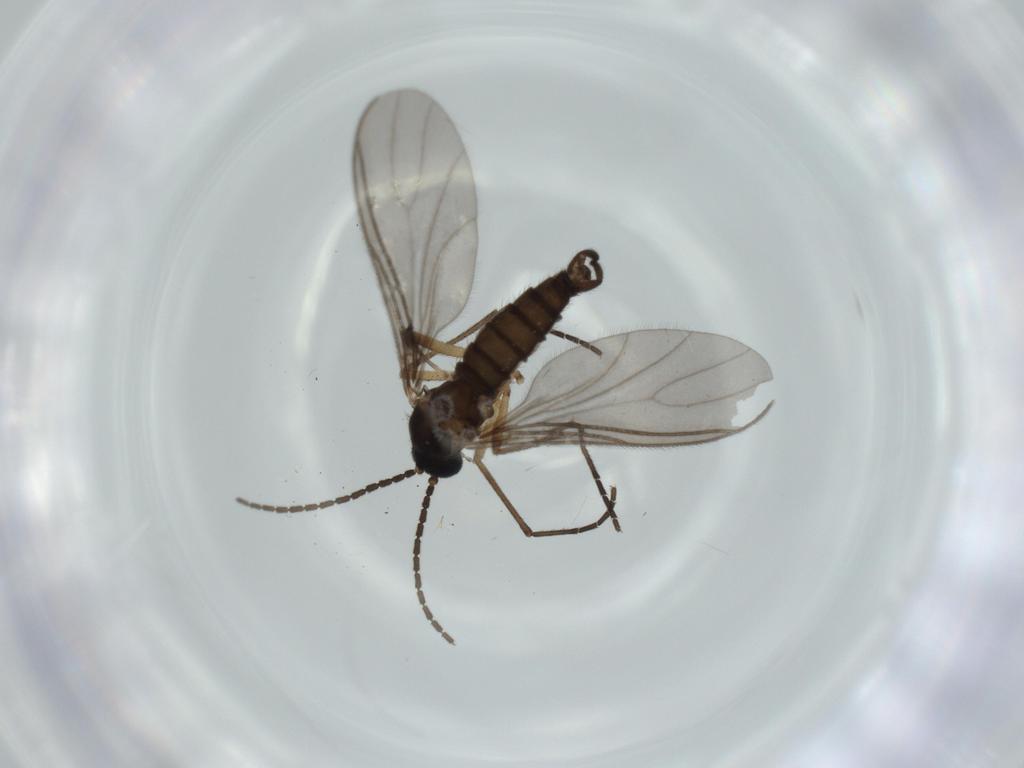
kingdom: Animalia
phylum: Arthropoda
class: Insecta
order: Diptera
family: Sciaridae
